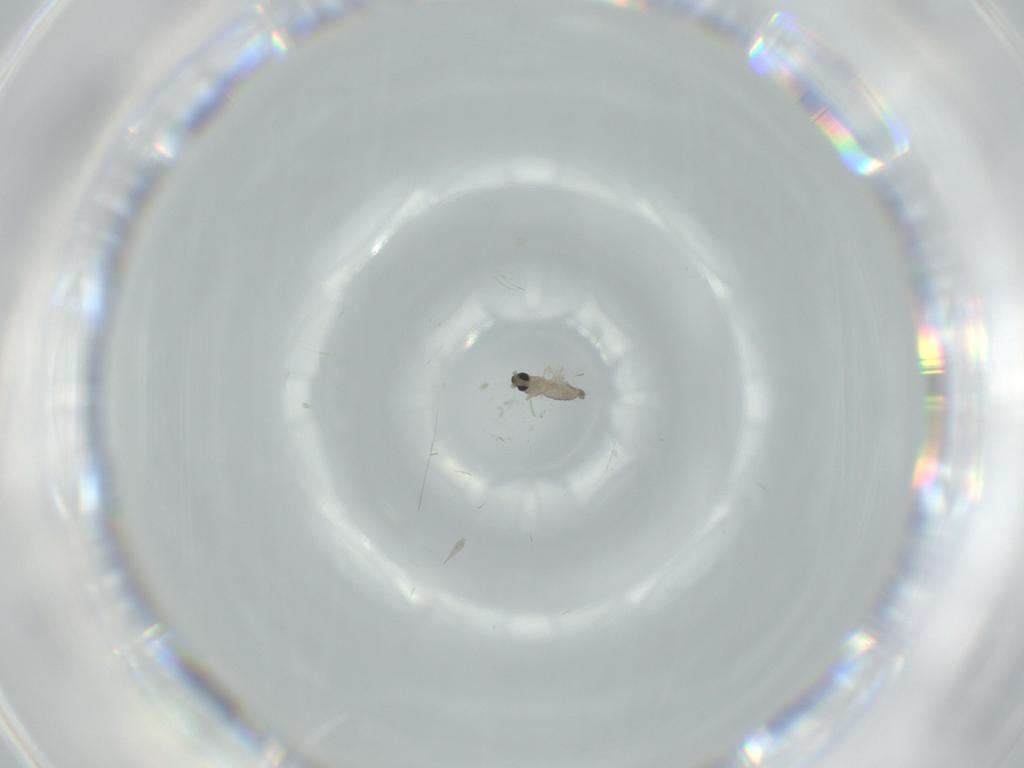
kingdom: Animalia
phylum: Arthropoda
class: Insecta
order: Diptera
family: Cecidomyiidae
